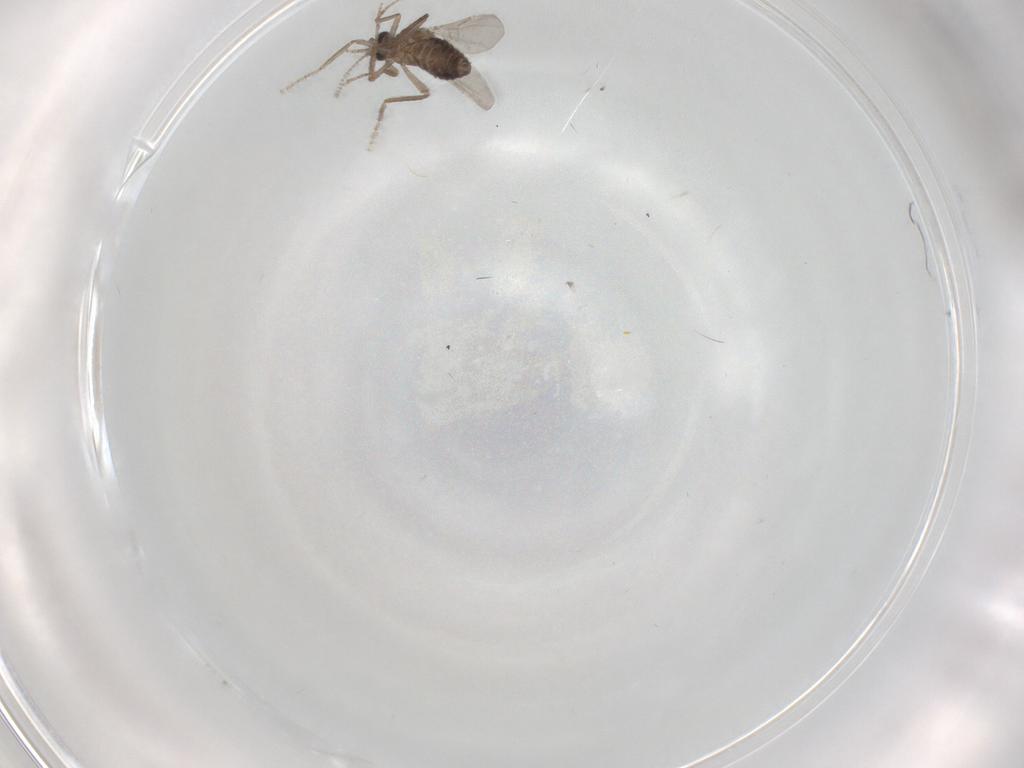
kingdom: Animalia
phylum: Arthropoda
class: Insecta
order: Diptera
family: Ceratopogonidae
